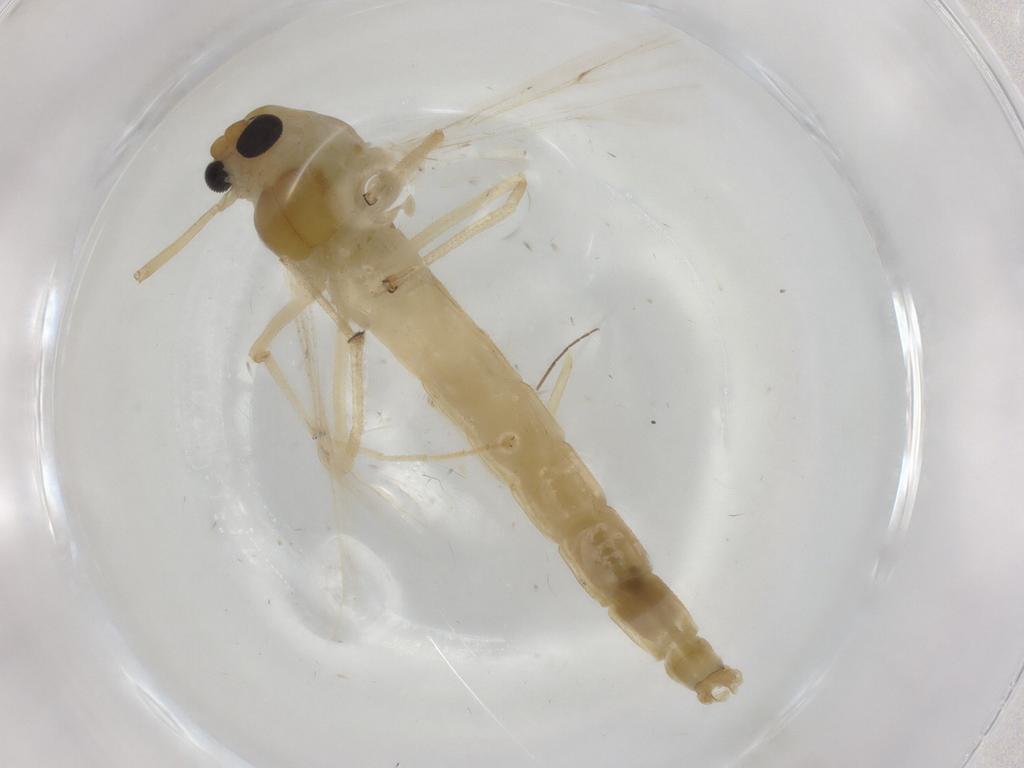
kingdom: Animalia
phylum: Arthropoda
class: Insecta
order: Diptera
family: Chironomidae
